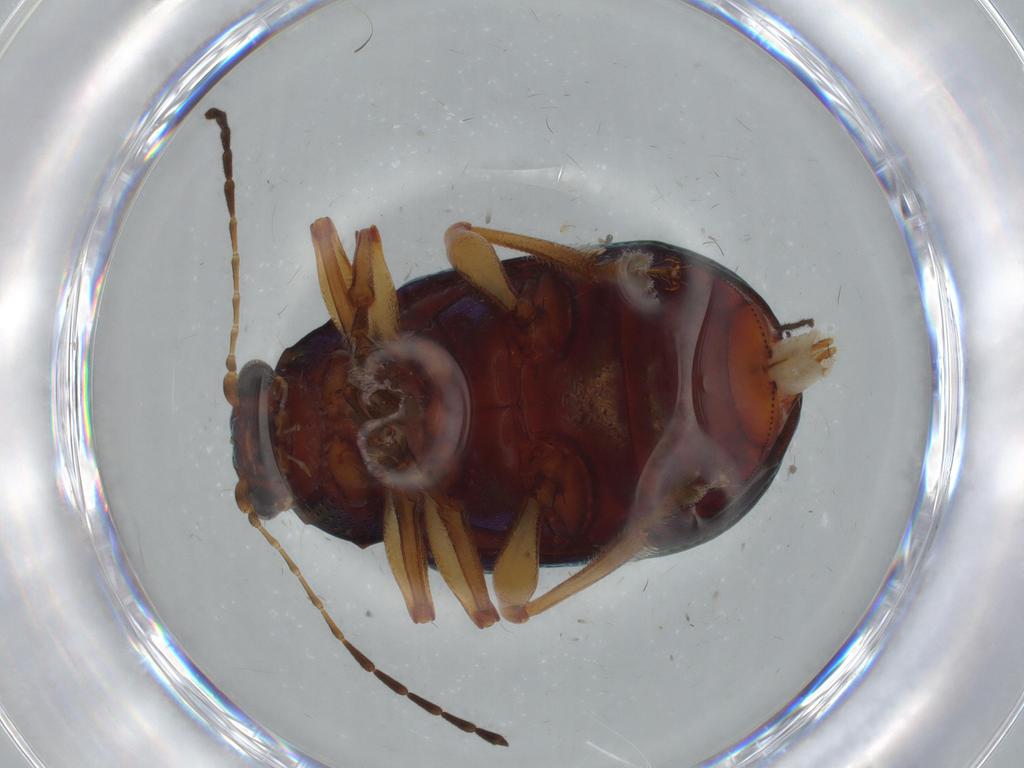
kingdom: Animalia
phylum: Arthropoda
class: Insecta
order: Coleoptera
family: Chrysomelidae
